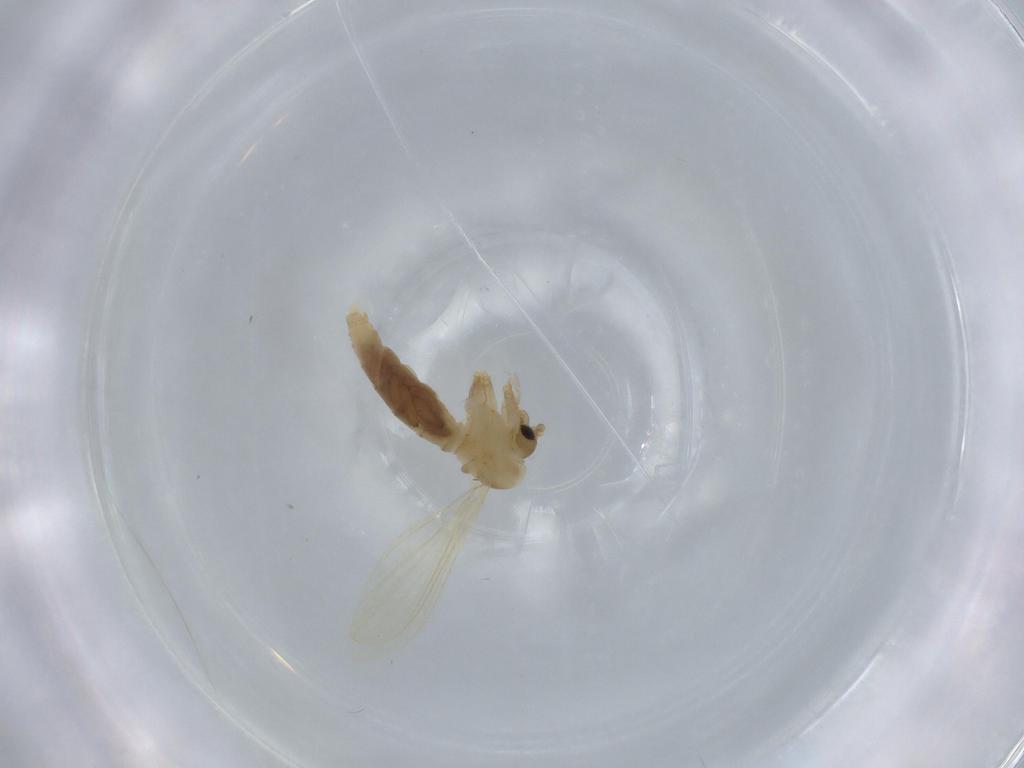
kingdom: Animalia
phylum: Arthropoda
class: Insecta
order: Diptera
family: Psychodidae
